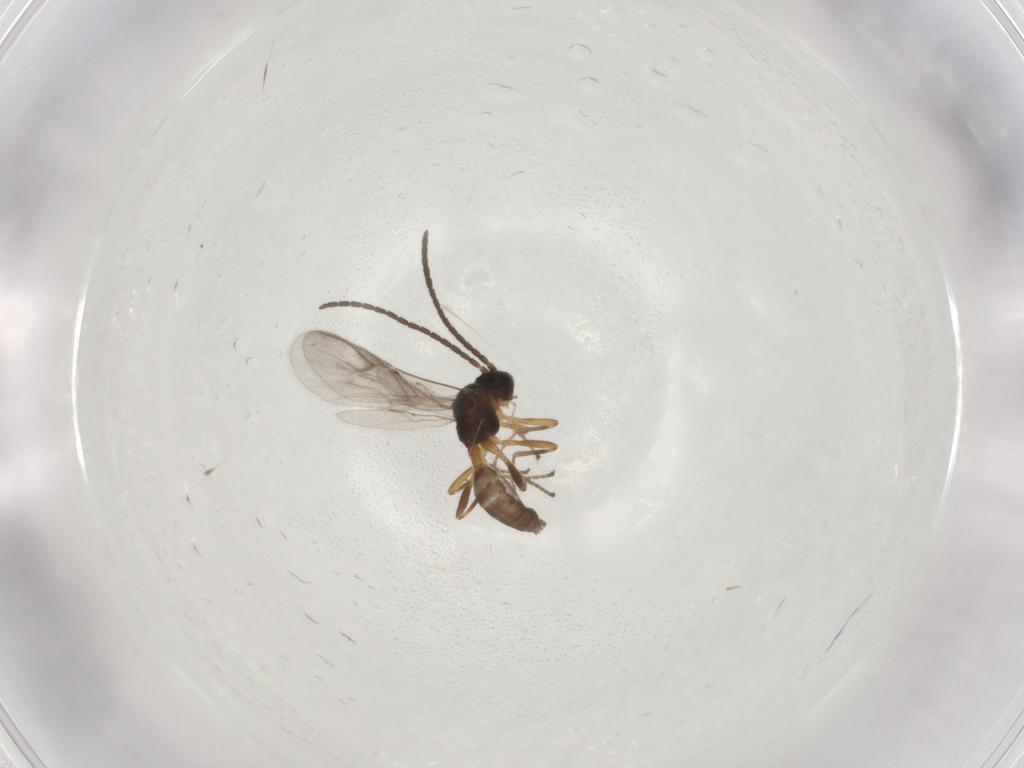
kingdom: Animalia
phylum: Arthropoda
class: Insecta
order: Hymenoptera
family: Braconidae
